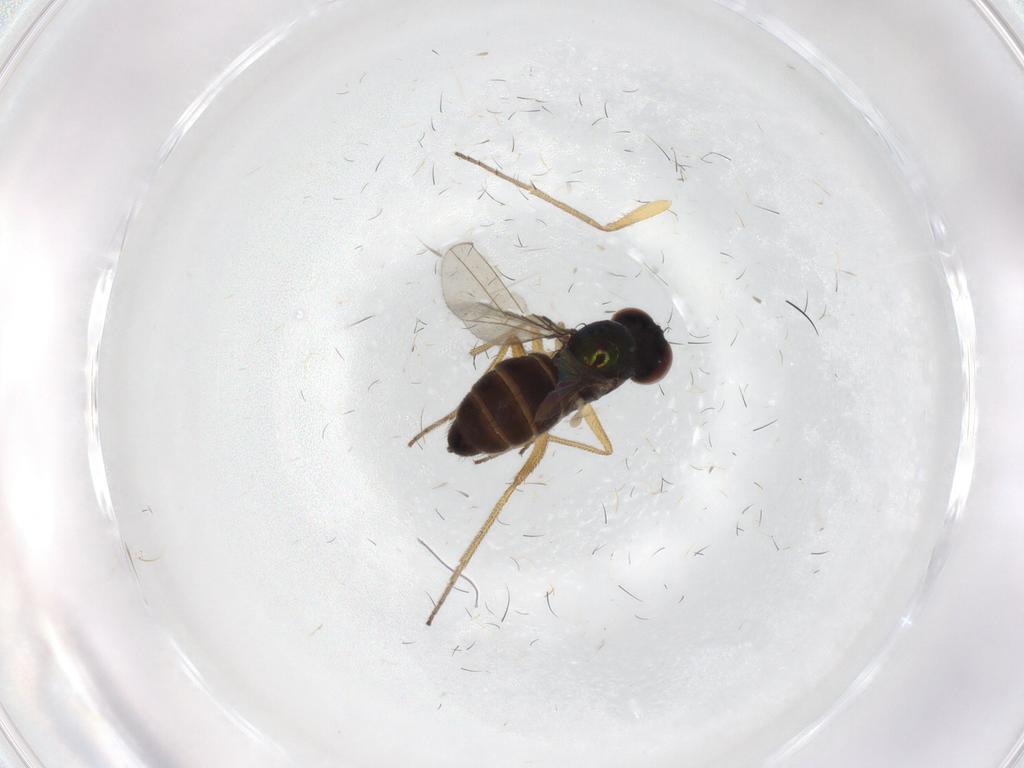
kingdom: Animalia
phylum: Arthropoda
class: Insecta
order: Diptera
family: Dolichopodidae
